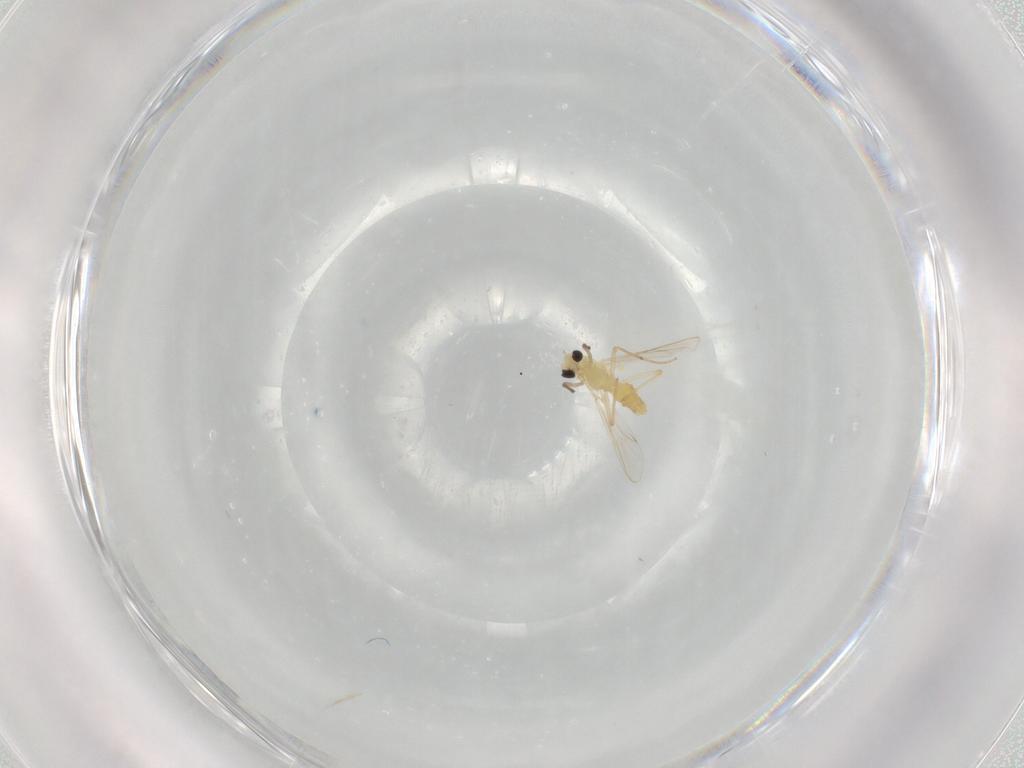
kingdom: Animalia
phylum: Arthropoda
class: Insecta
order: Diptera
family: Chironomidae
